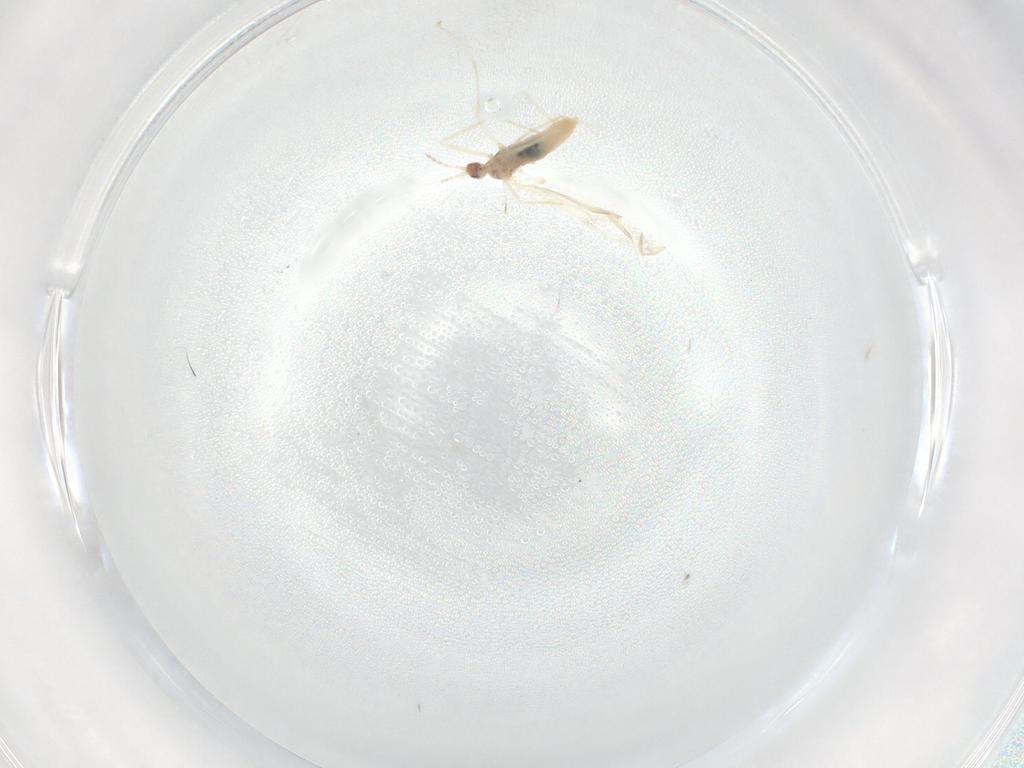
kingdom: Animalia
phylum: Arthropoda
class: Insecta
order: Diptera
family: Cecidomyiidae
